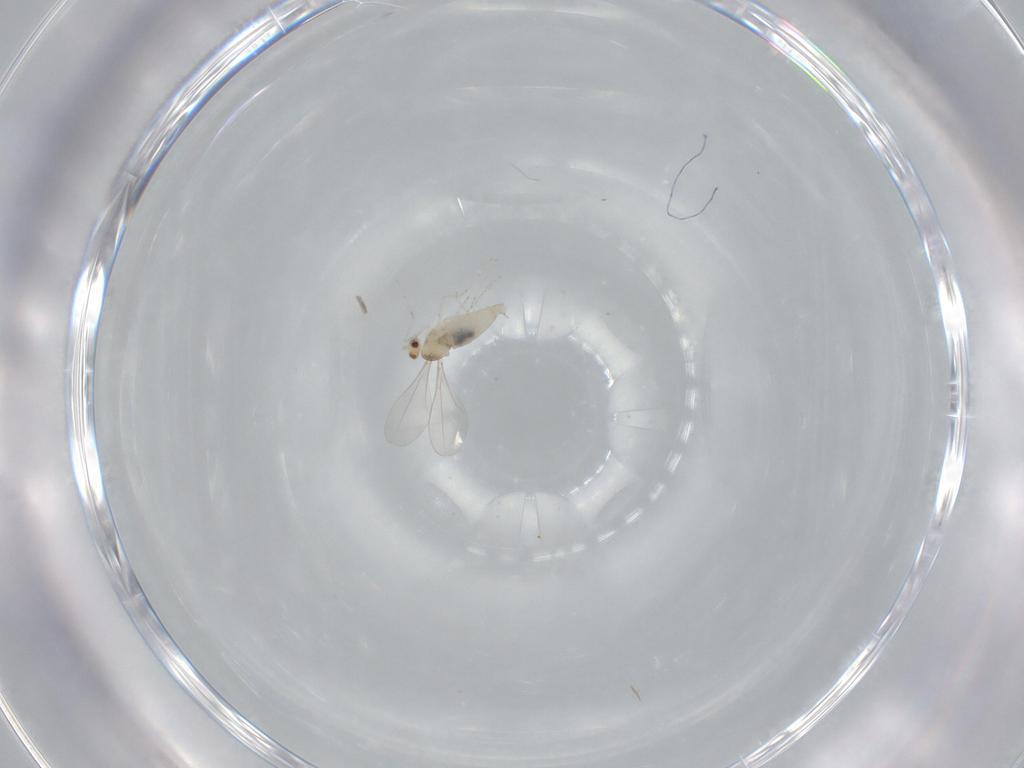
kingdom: Animalia
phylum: Arthropoda
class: Insecta
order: Diptera
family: Cecidomyiidae
